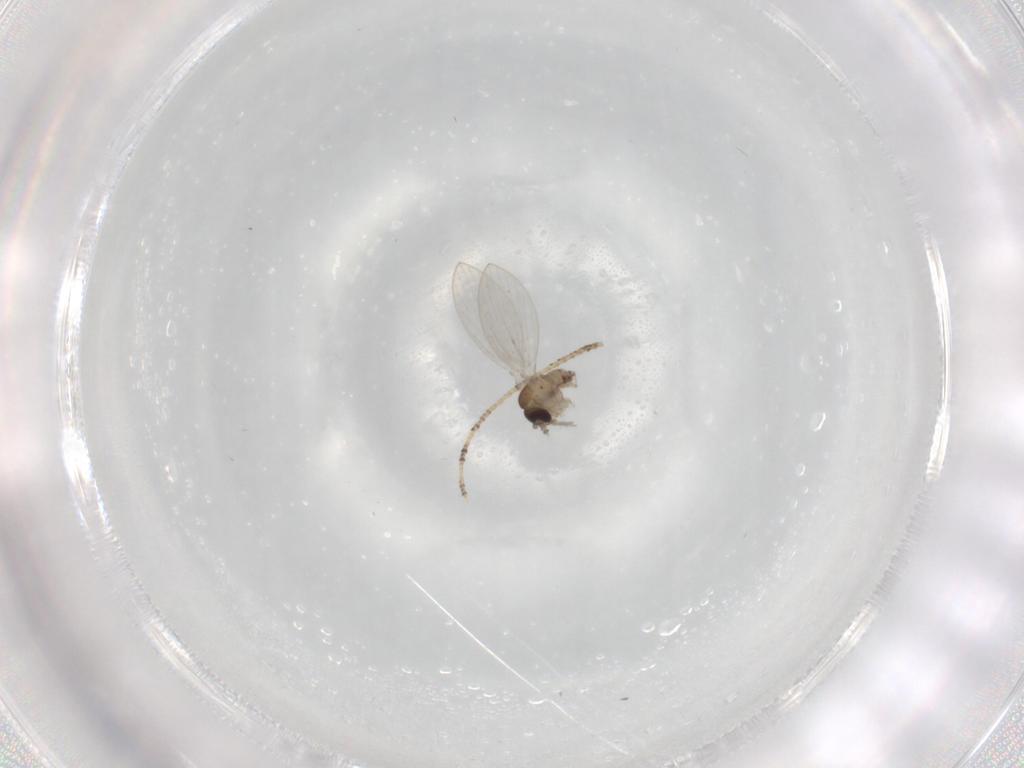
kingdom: Animalia
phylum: Arthropoda
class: Insecta
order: Diptera
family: Psychodidae
